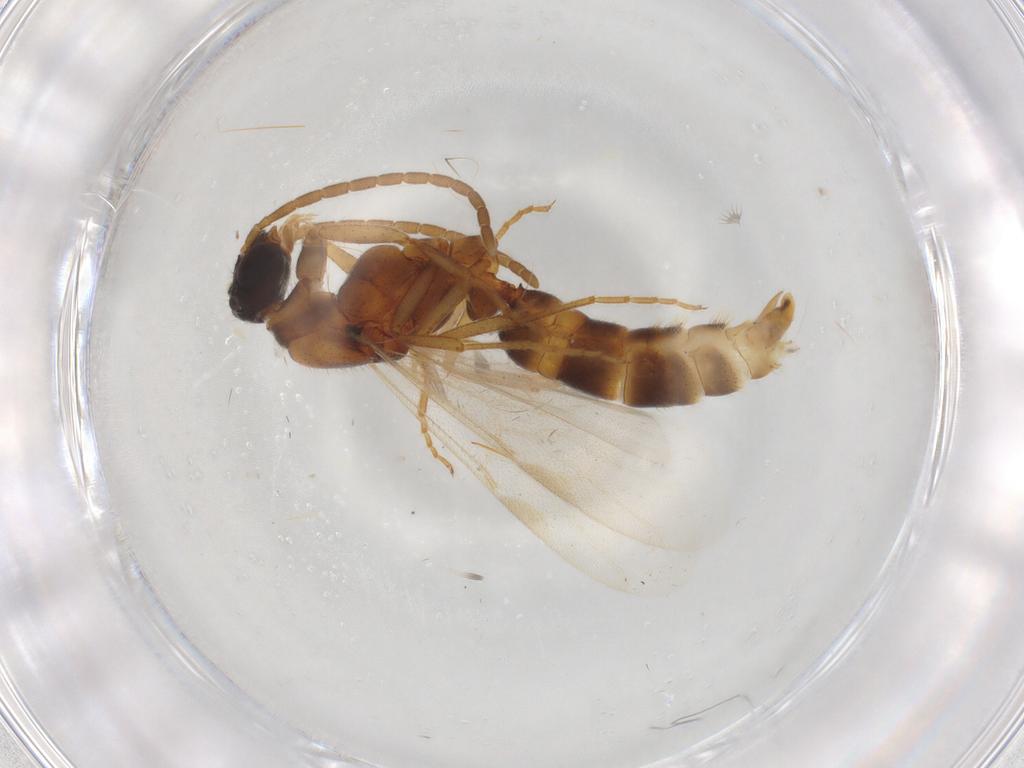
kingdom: Animalia
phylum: Arthropoda
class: Insecta
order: Hymenoptera
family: Formicidae
